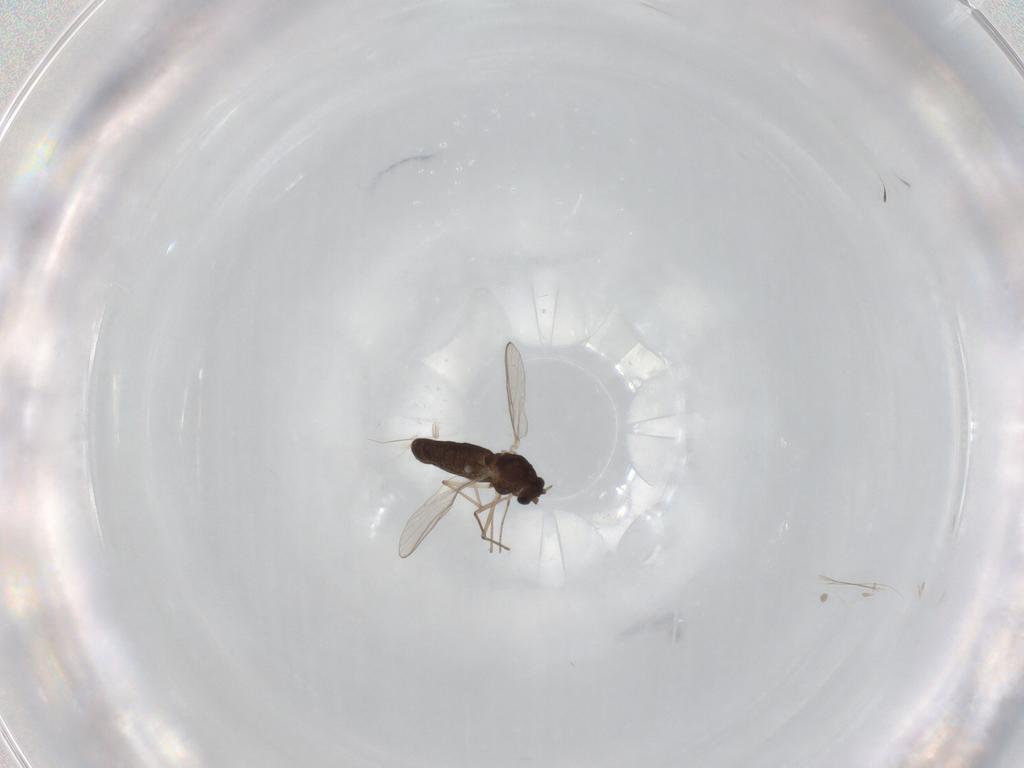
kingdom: Animalia
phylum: Arthropoda
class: Insecta
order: Diptera
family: Chironomidae
